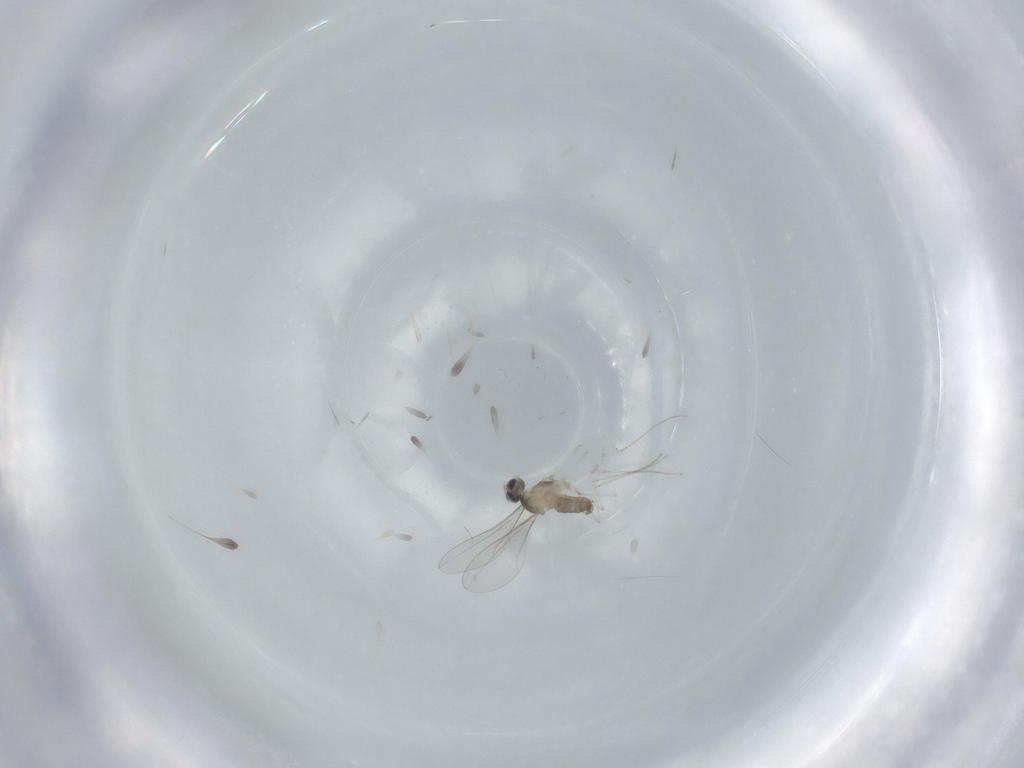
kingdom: Animalia
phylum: Arthropoda
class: Insecta
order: Diptera
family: Cecidomyiidae
